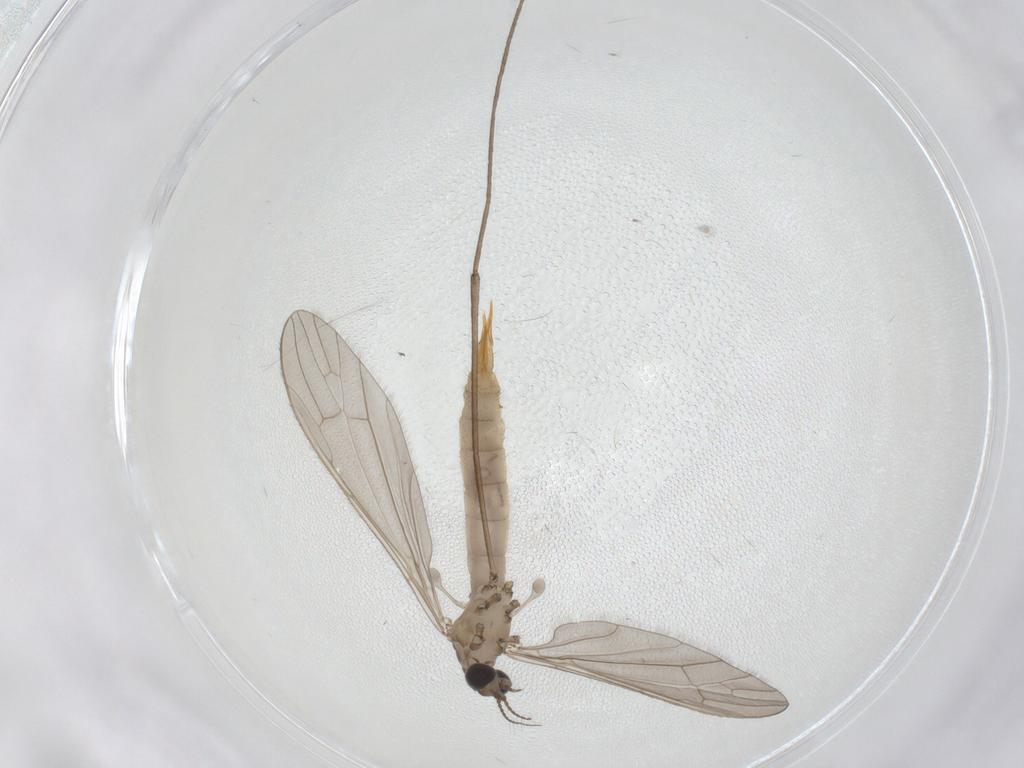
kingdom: Animalia
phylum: Arthropoda
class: Insecta
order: Diptera
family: Limoniidae
